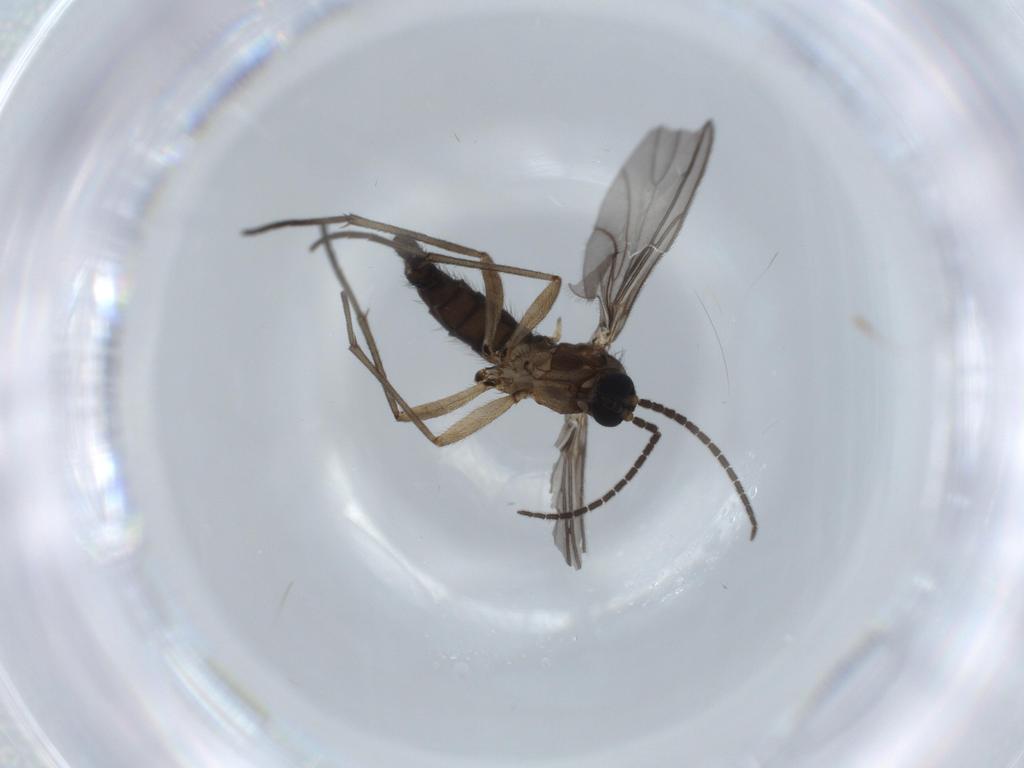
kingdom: Animalia
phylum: Arthropoda
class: Insecta
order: Diptera
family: Sciaridae
